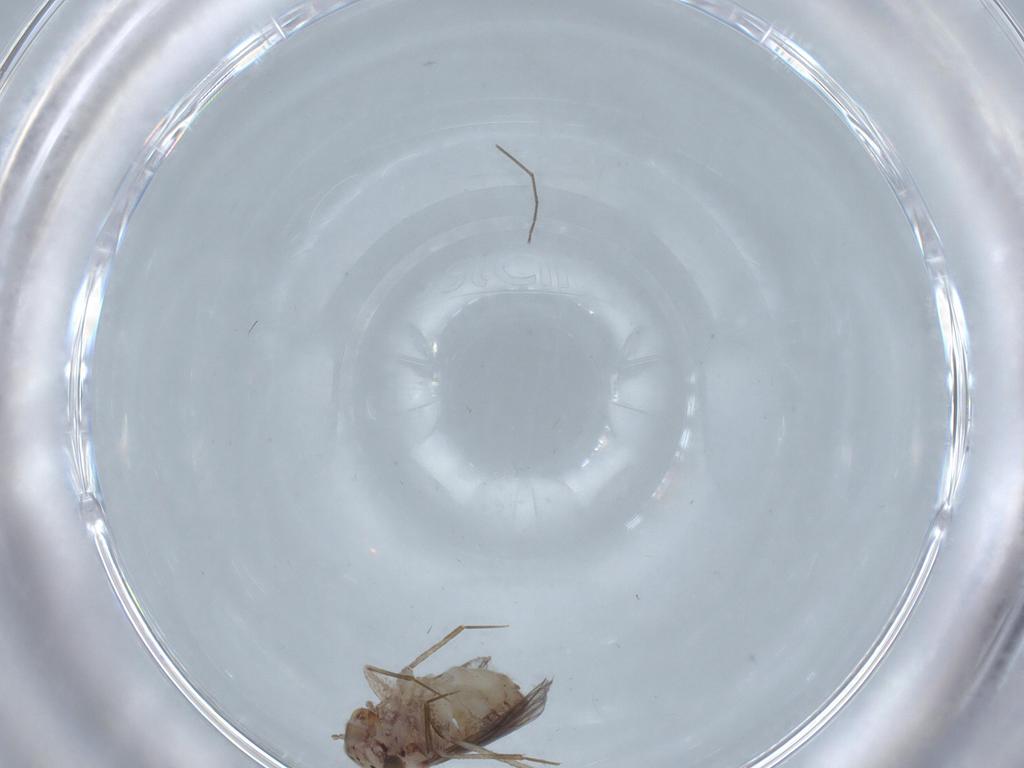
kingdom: Animalia
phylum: Arthropoda
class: Insecta
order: Psocodea
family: Lepidopsocidae
